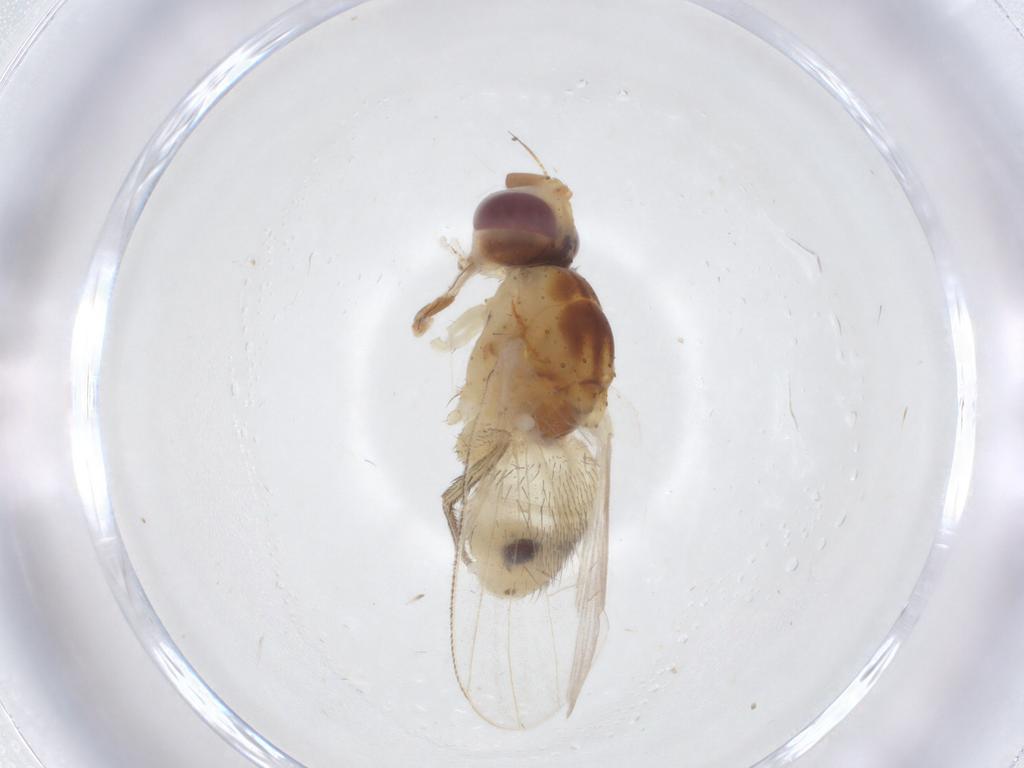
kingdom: Animalia
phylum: Arthropoda
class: Insecta
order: Diptera
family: Muscidae
